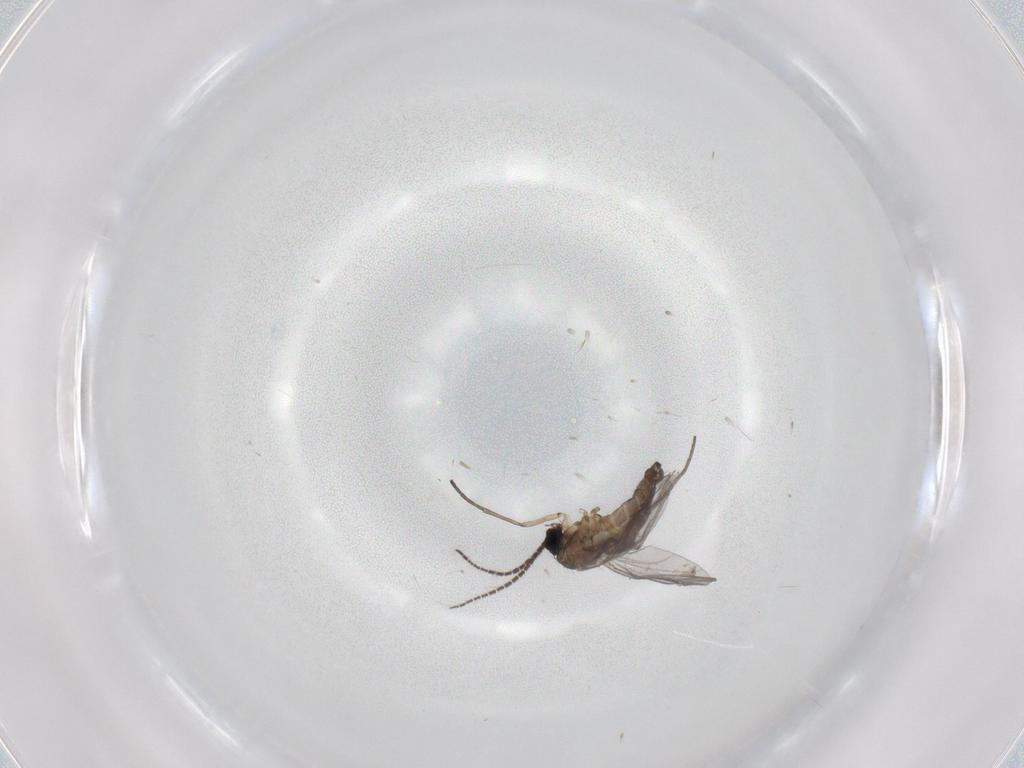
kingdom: Animalia
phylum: Arthropoda
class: Insecta
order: Diptera
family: Sciaridae
